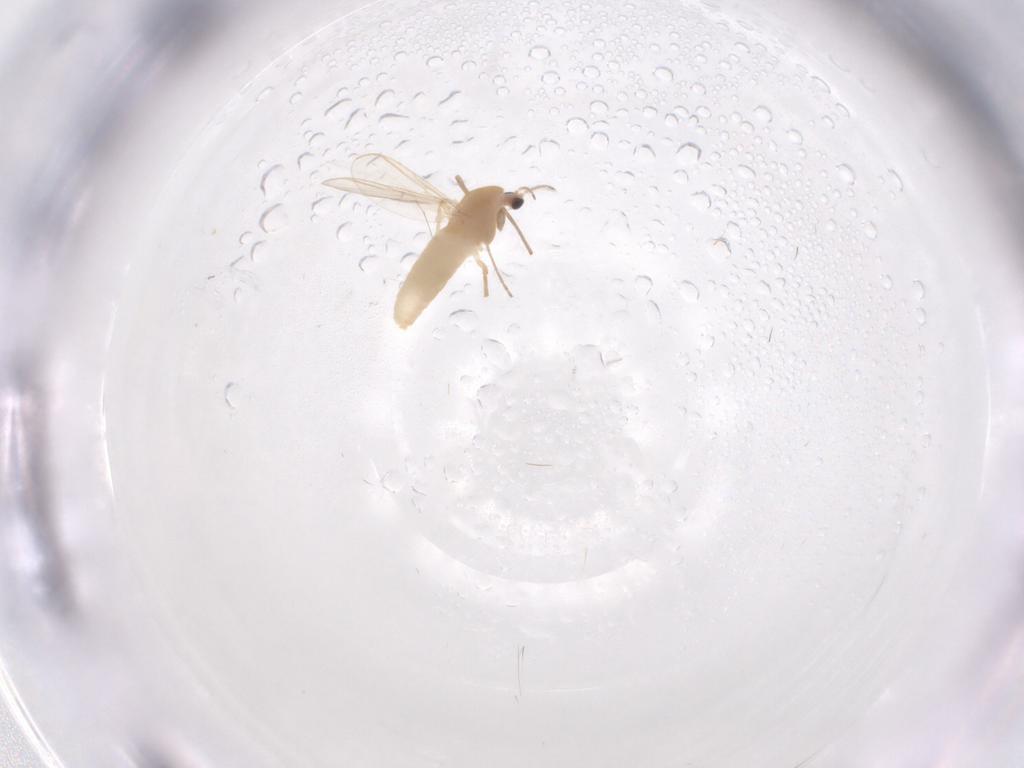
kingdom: Animalia
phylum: Arthropoda
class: Insecta
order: Diptera
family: Chironomidae
